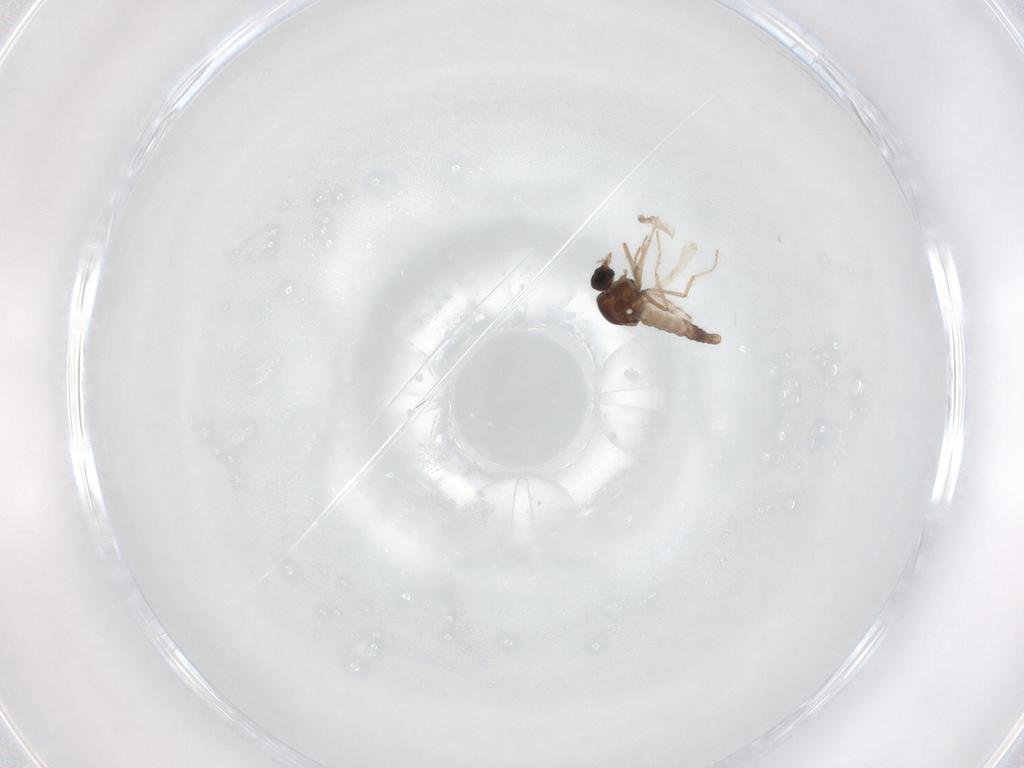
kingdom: Animalia
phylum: Arthropoda
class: Insecta
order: Diptera
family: Ceratopogonidae
